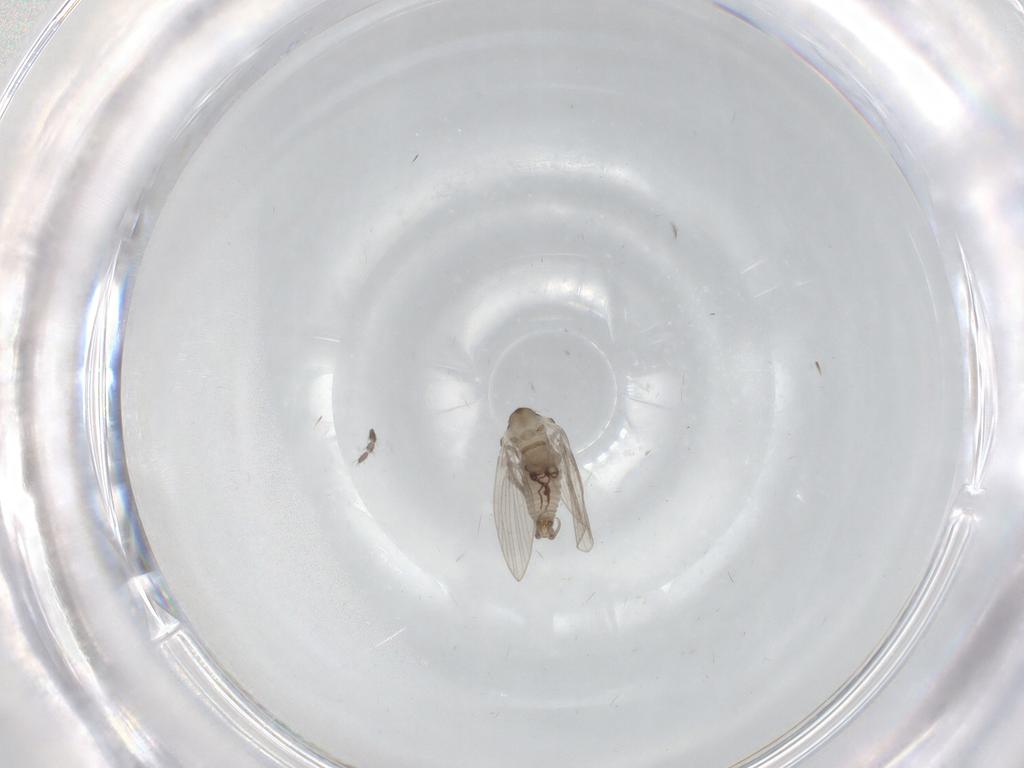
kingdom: Animalia
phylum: Arthropoda
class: Insecta
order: Diptera
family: Psychodidae
